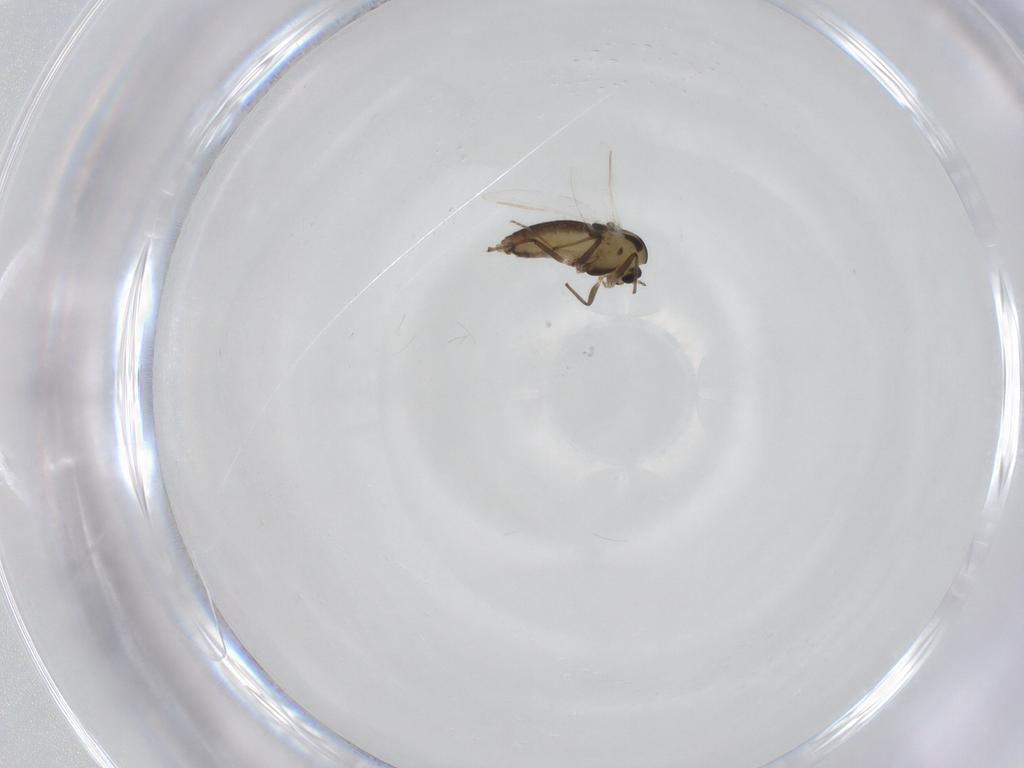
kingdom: Animalia
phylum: Arthropoda
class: Insecta
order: Diptera
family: Chironomidae
